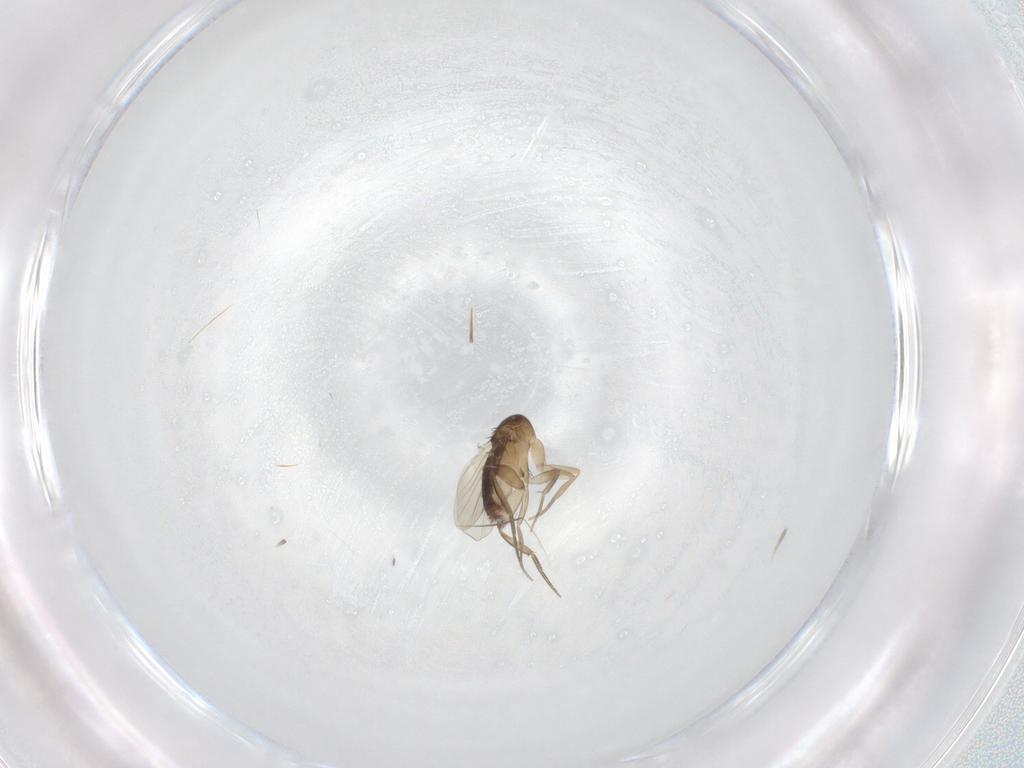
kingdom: Animalia
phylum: Arthropoda
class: Insecta
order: Diptera
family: Phoridae
